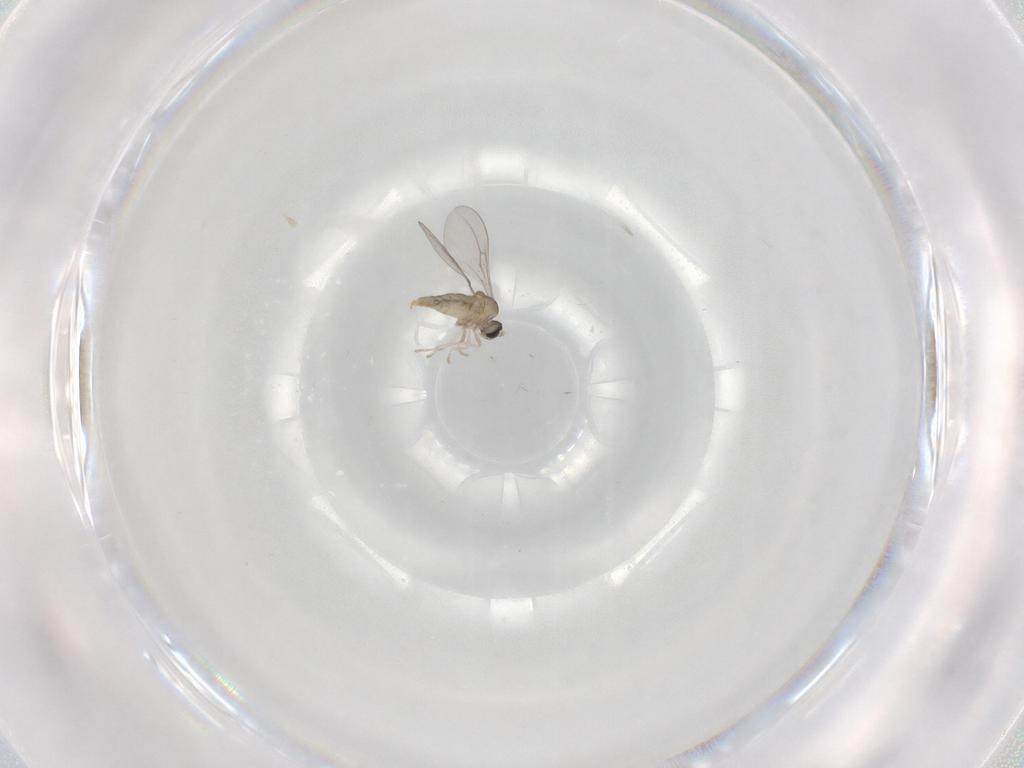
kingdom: Animalia
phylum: Arthropoda
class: Insecta
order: Diptera
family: Cecidomyiidae
